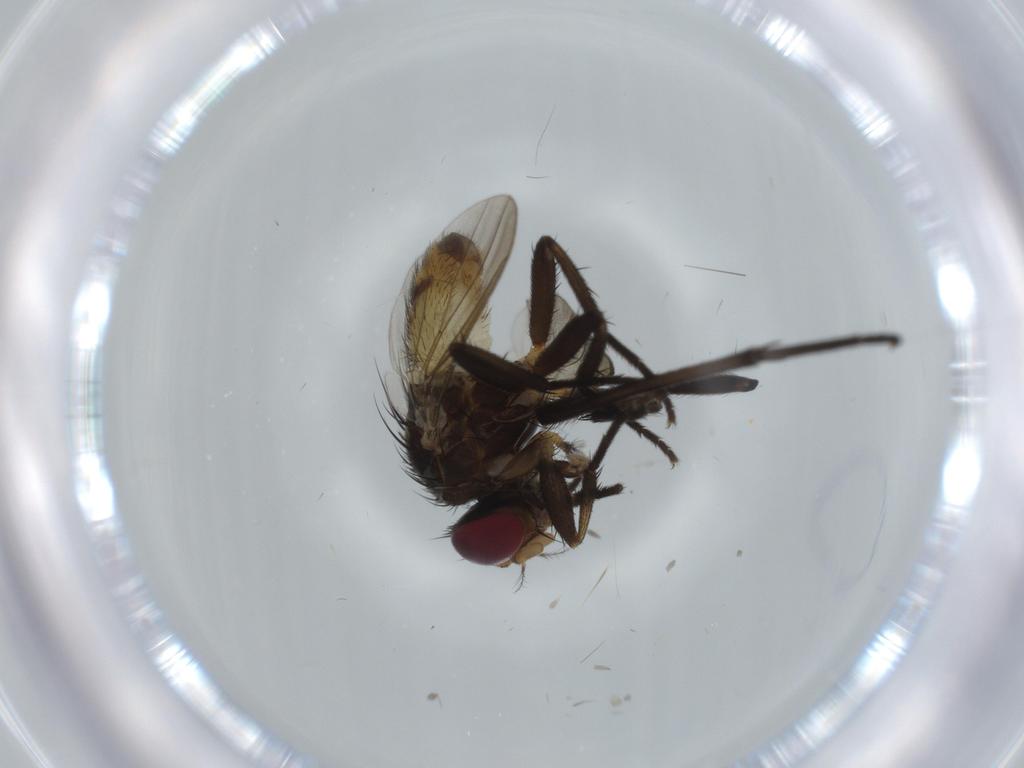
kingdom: Animalia
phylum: Arthropoda
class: Insecta
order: Diptera
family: Anthomyiidae
